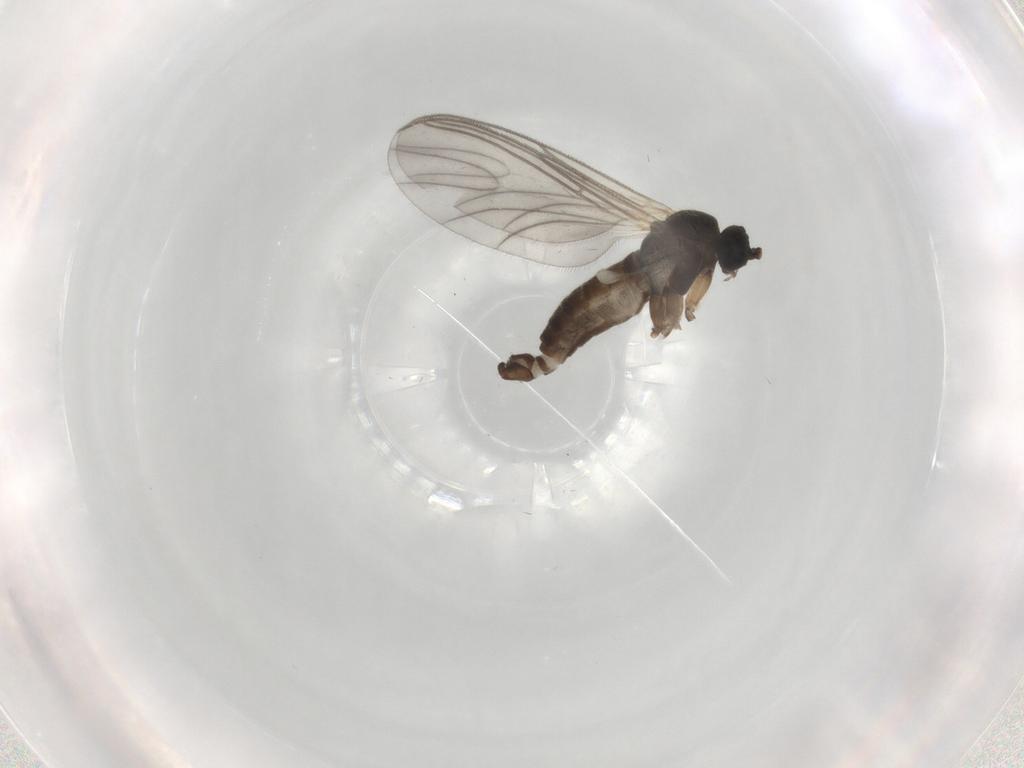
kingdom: Animalia
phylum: Arthropoda
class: Insecta
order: Diptera
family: Sciaridae
